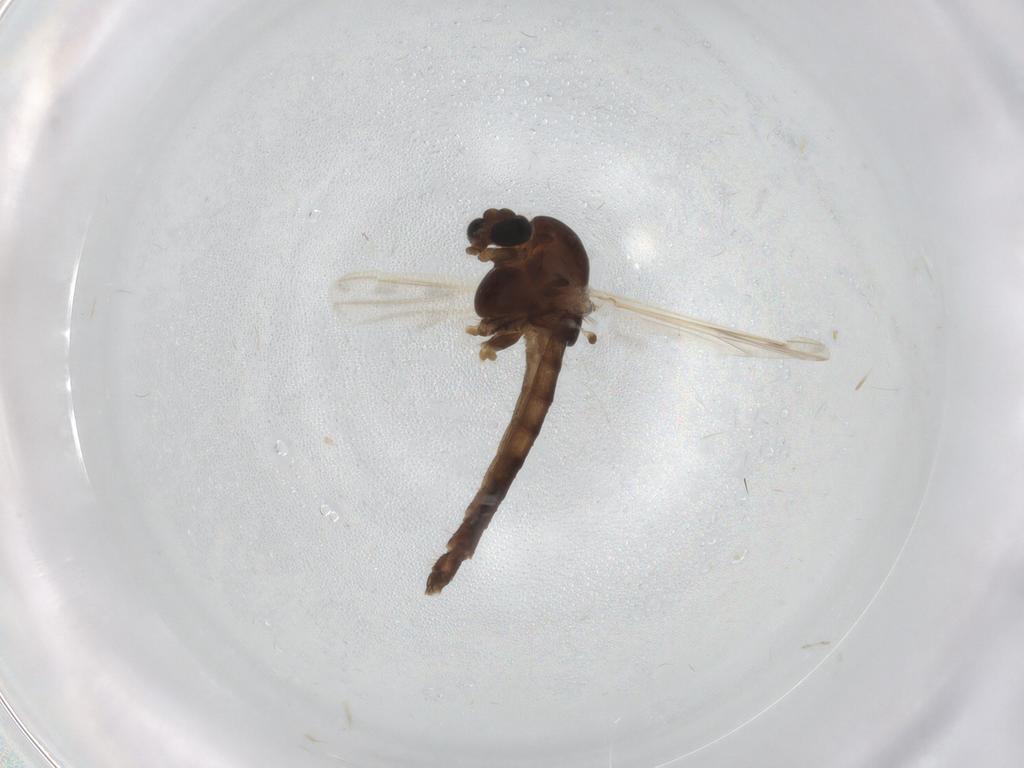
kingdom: Animalia
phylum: Arthropoda
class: Insecta
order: Diptera
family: Chironomidae
